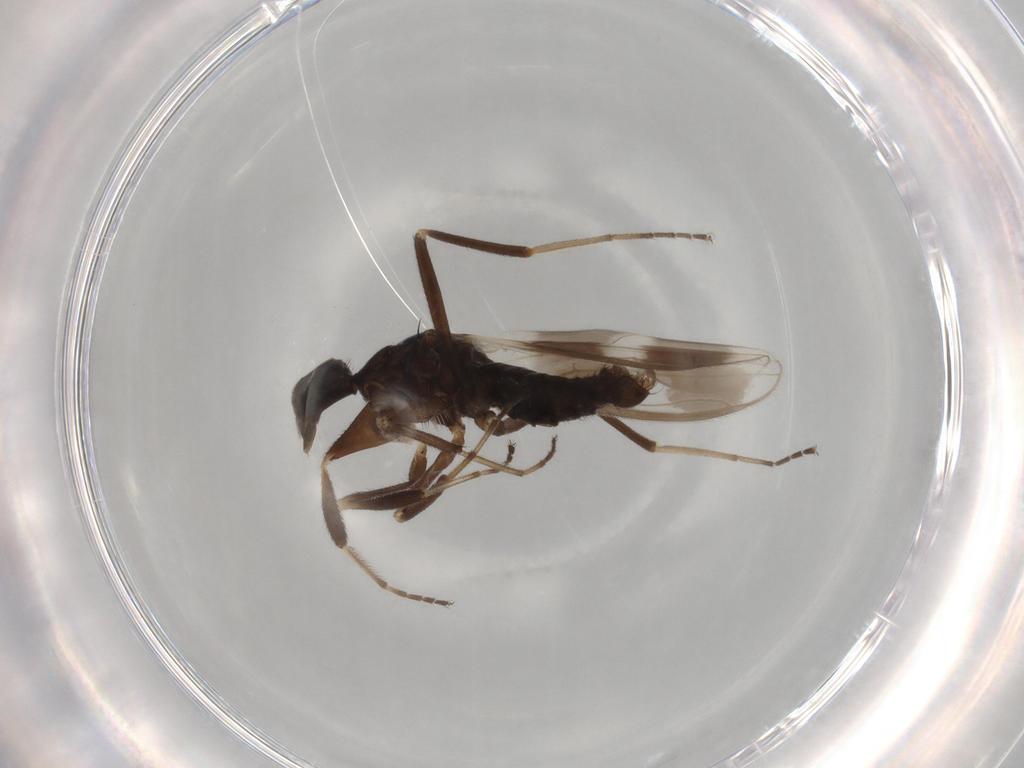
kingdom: Animalia
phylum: Arthropoda
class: Insecta
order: Diptera
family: Hybotidae
